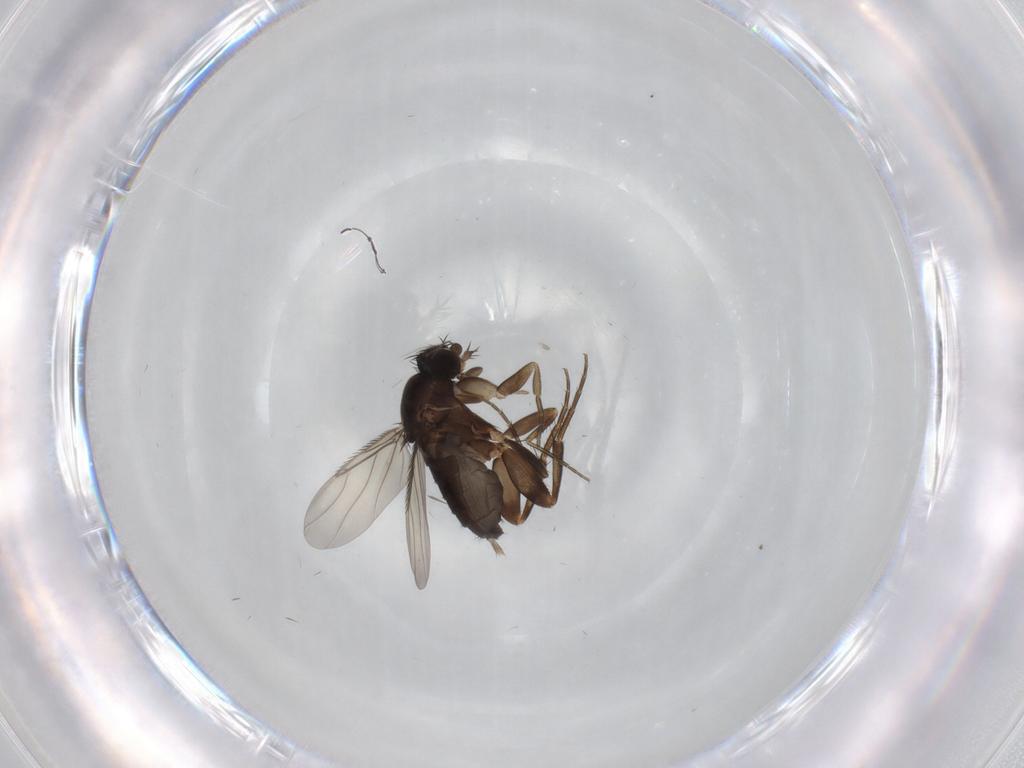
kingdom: Animalia
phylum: Arthropoda
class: Insecta
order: Diptera
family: Phoridae
